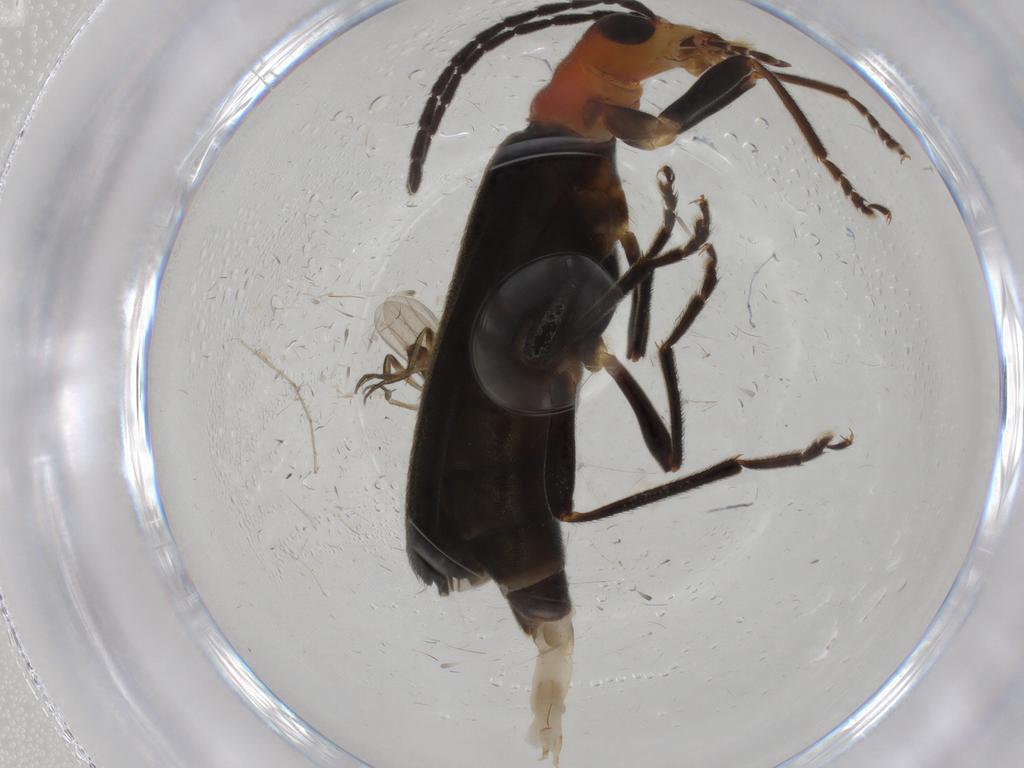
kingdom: Animalia
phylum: Arthropoda
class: Insecta
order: Coleoptera
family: Oedemeridae
